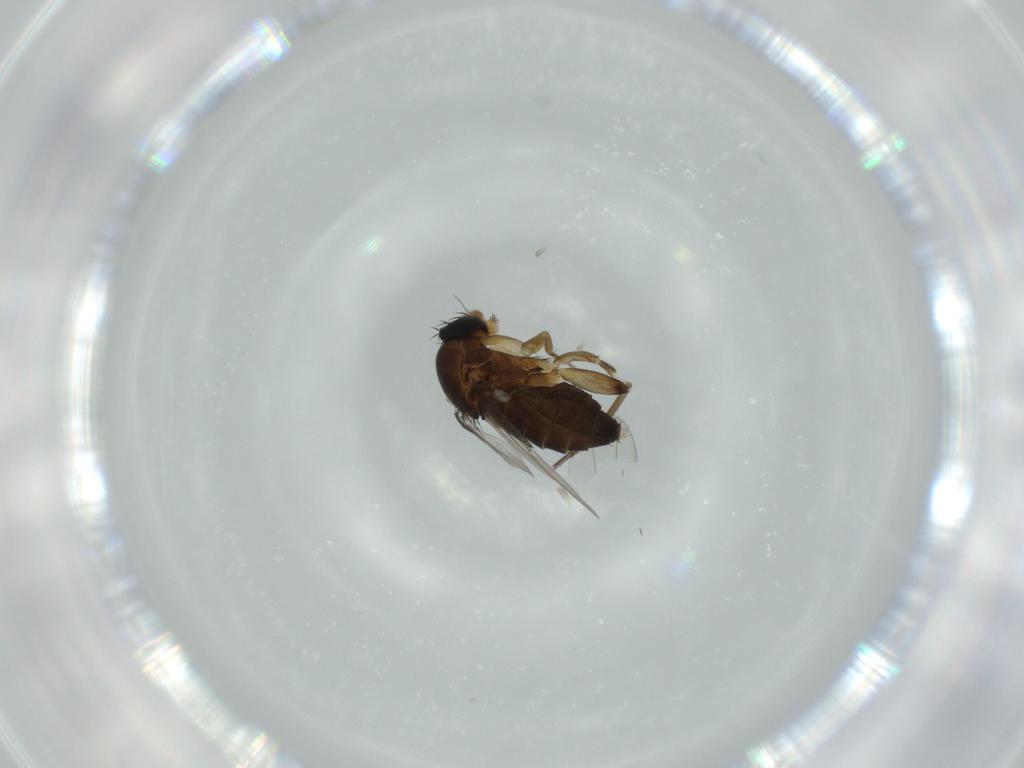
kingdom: Animalia
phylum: Arthropoda
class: Insecta
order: Diptera
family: Phoridae
